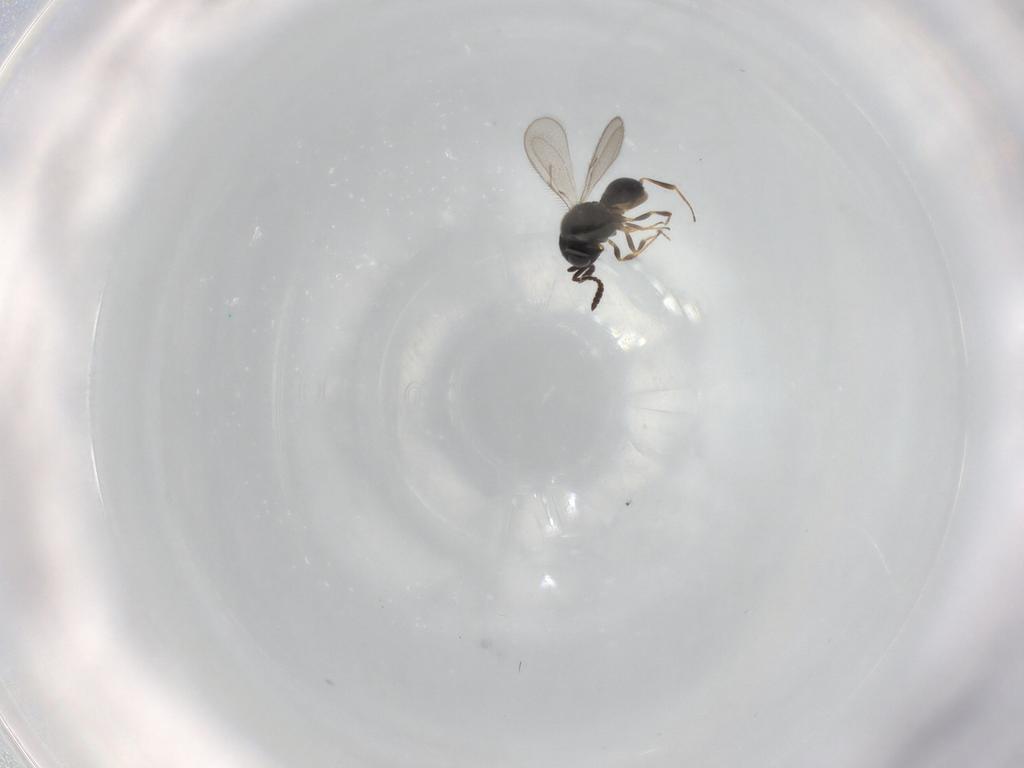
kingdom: Animalia
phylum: Arthropoda
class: Insecta
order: Hymenoptera
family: Scelionidae
